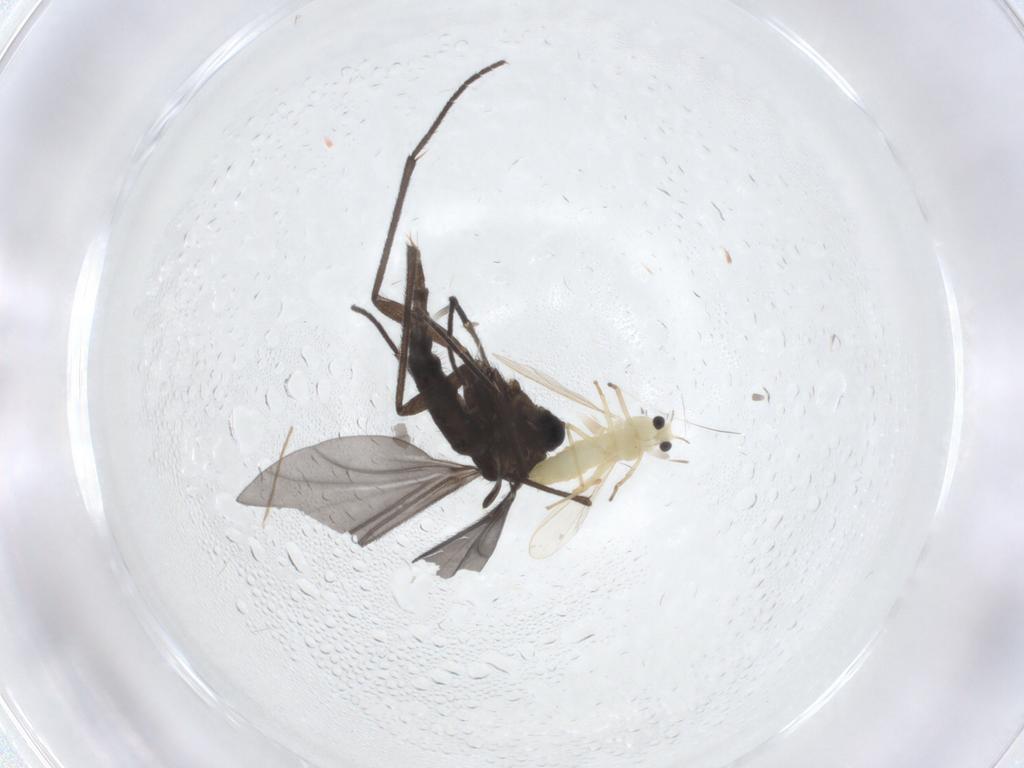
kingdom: Animalia
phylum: Arthropoda
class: Insecta
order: Diptera
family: Sciaridae
